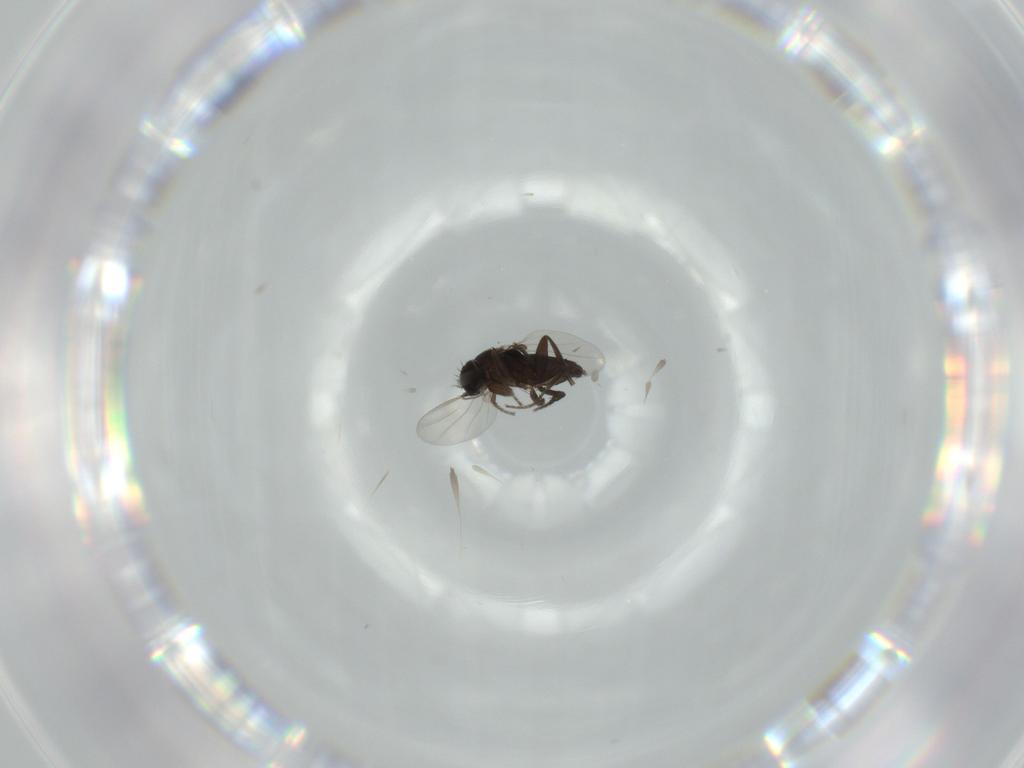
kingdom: Animalia
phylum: Arthropoda
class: Insecta
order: Diptera
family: Phoridae
